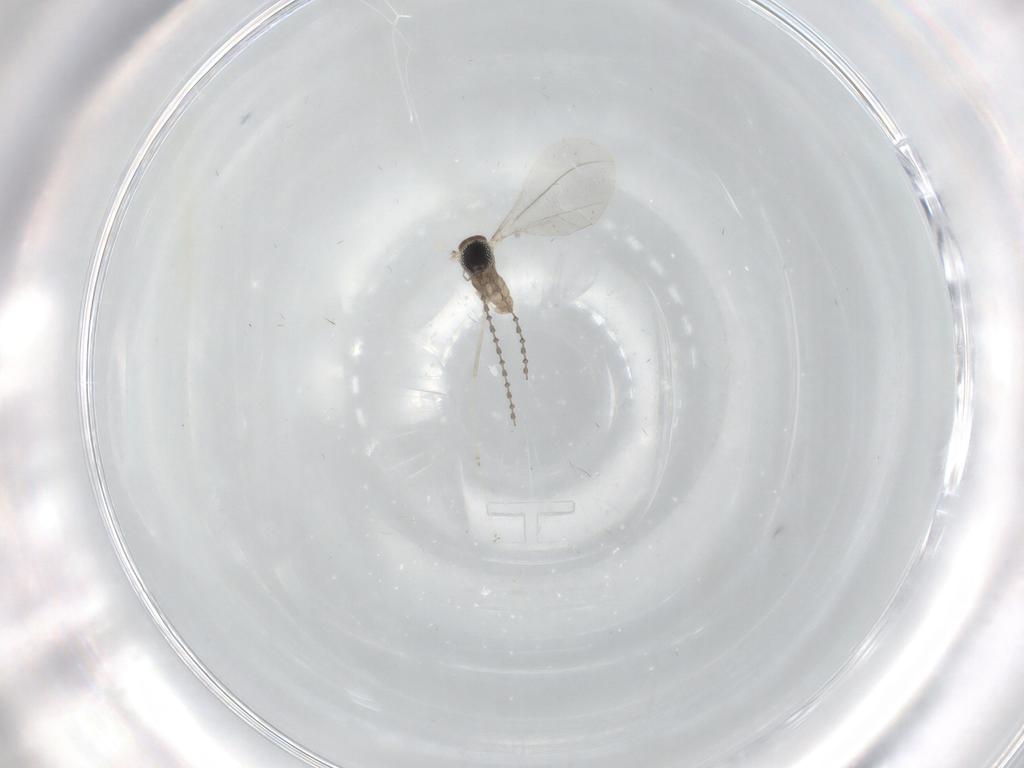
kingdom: Animalia
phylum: Arthropoda
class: Insecta
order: Diptera
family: Cecidomyiidae
